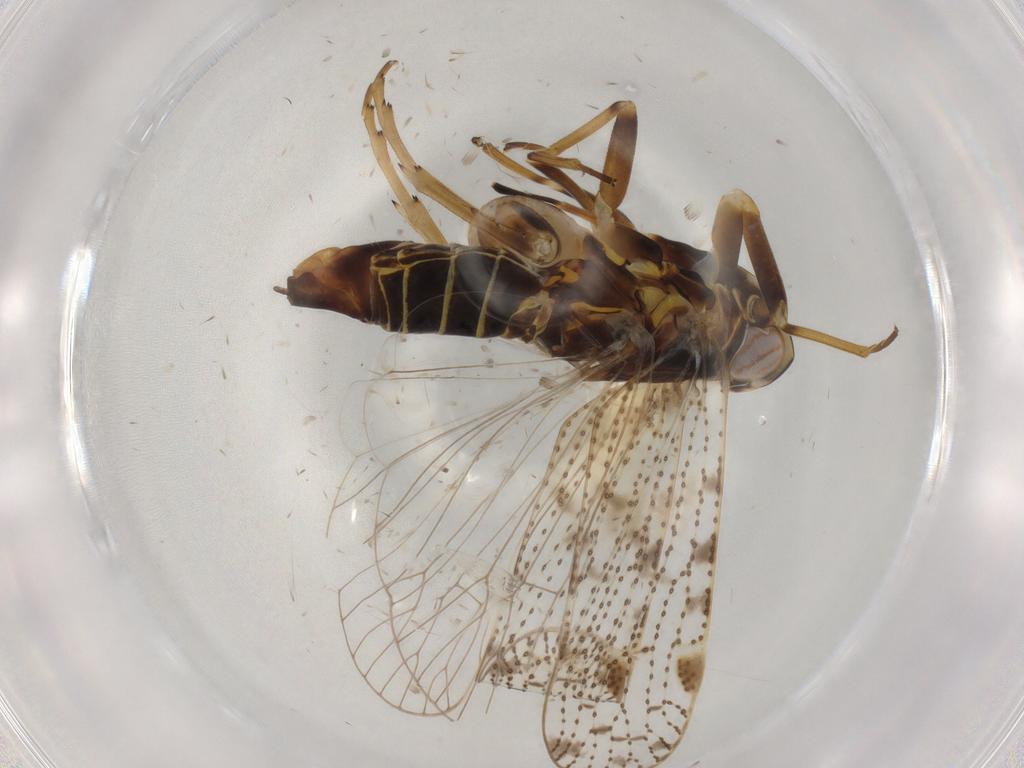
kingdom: Animalia
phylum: Arthropoda
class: Insecta
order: Hemiptera
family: Cixiidae
